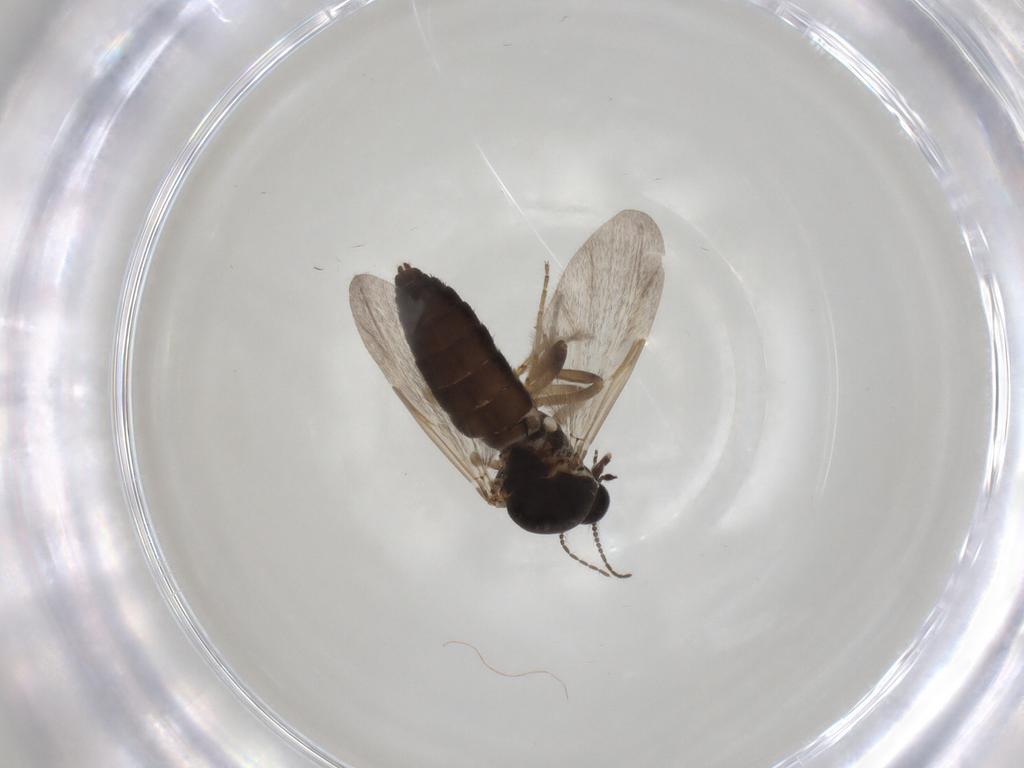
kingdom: Animalia
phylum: Arthropoda
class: Insecta
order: Diptera
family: Ceratopogonidae
